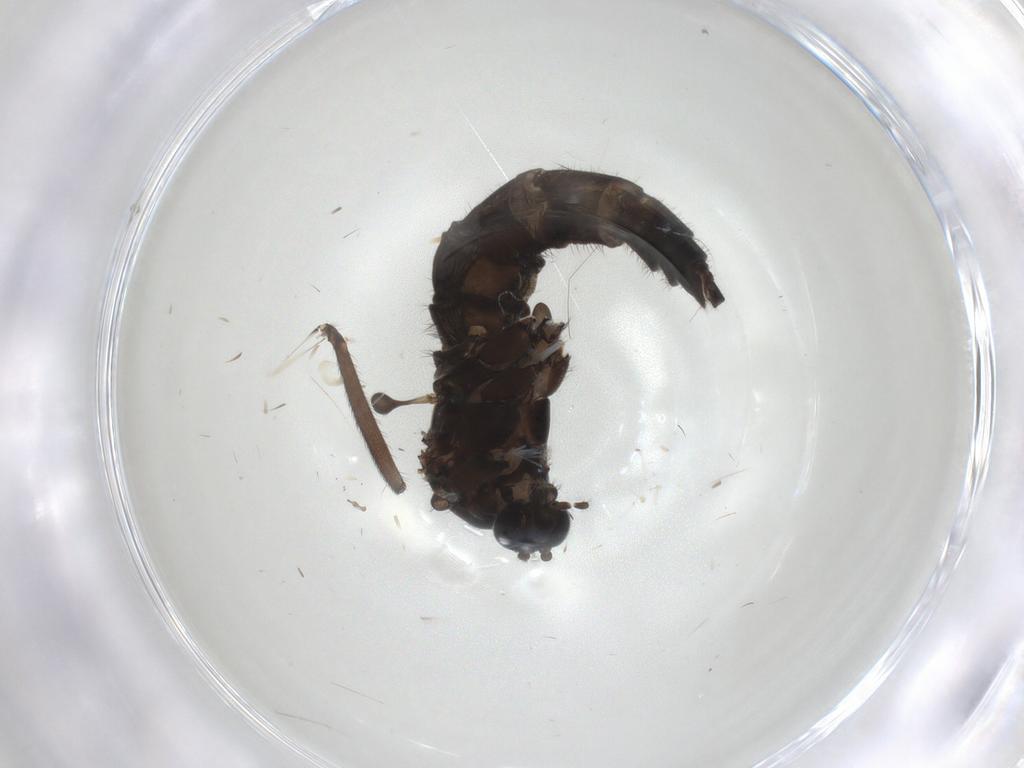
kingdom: Animalia
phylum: Arthropoda
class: Insecta
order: Diptera
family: Sciaridae
